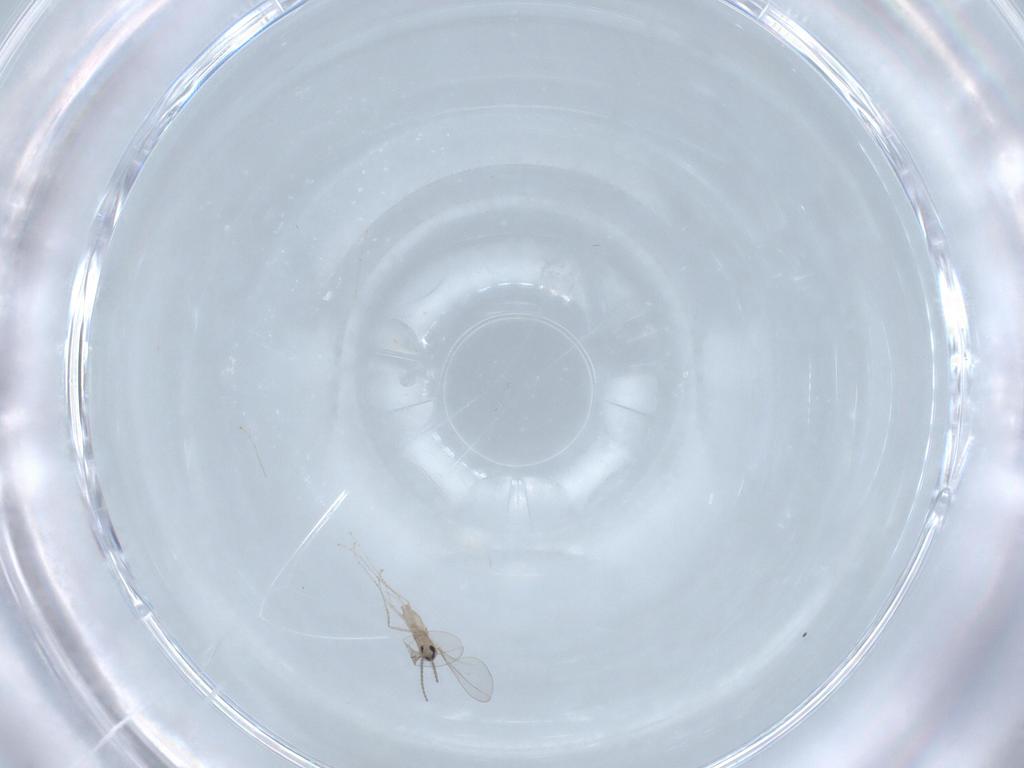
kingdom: Animalia
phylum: Arthropoda
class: Insecta
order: Diptera
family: Cecidomyiidae
